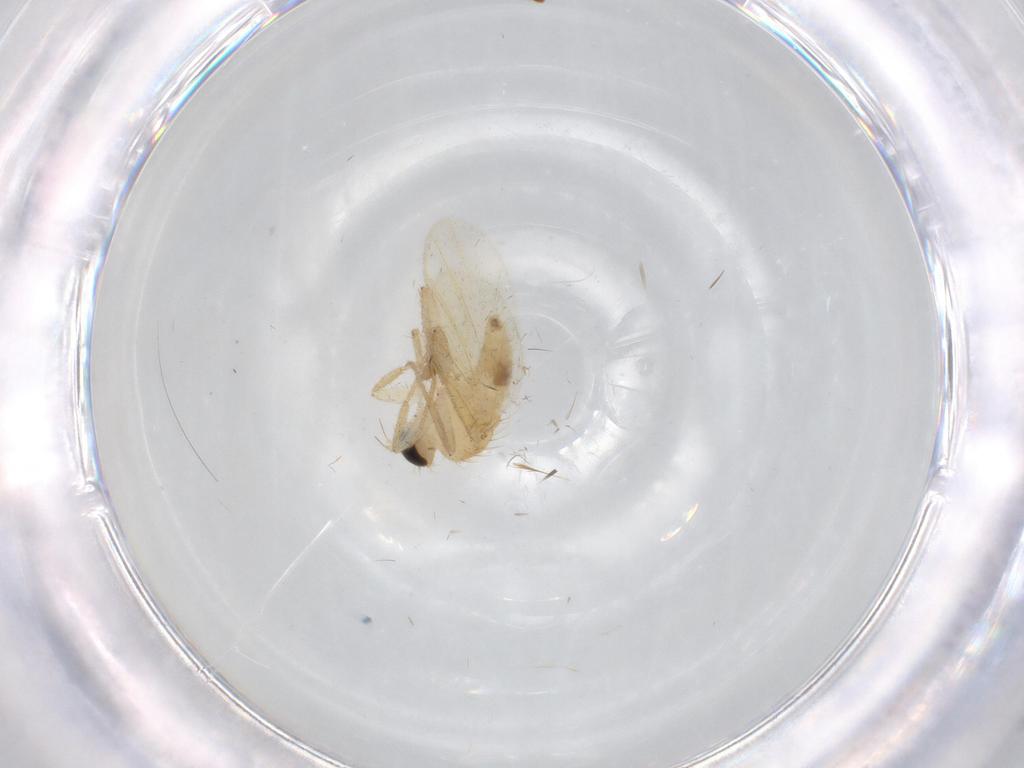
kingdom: Animalia
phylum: Arthropoda
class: Insecta
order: Diptera
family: Hybotidae
